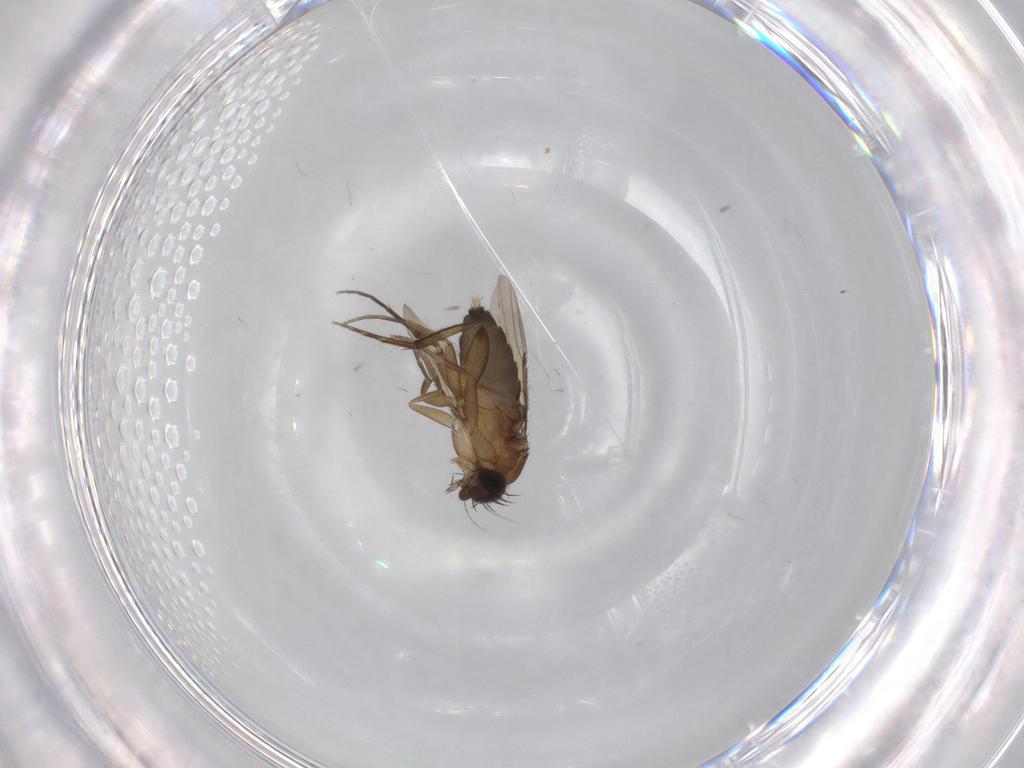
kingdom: Animalia
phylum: Arthropoda
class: Insecta
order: Diptera
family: Phoridae
